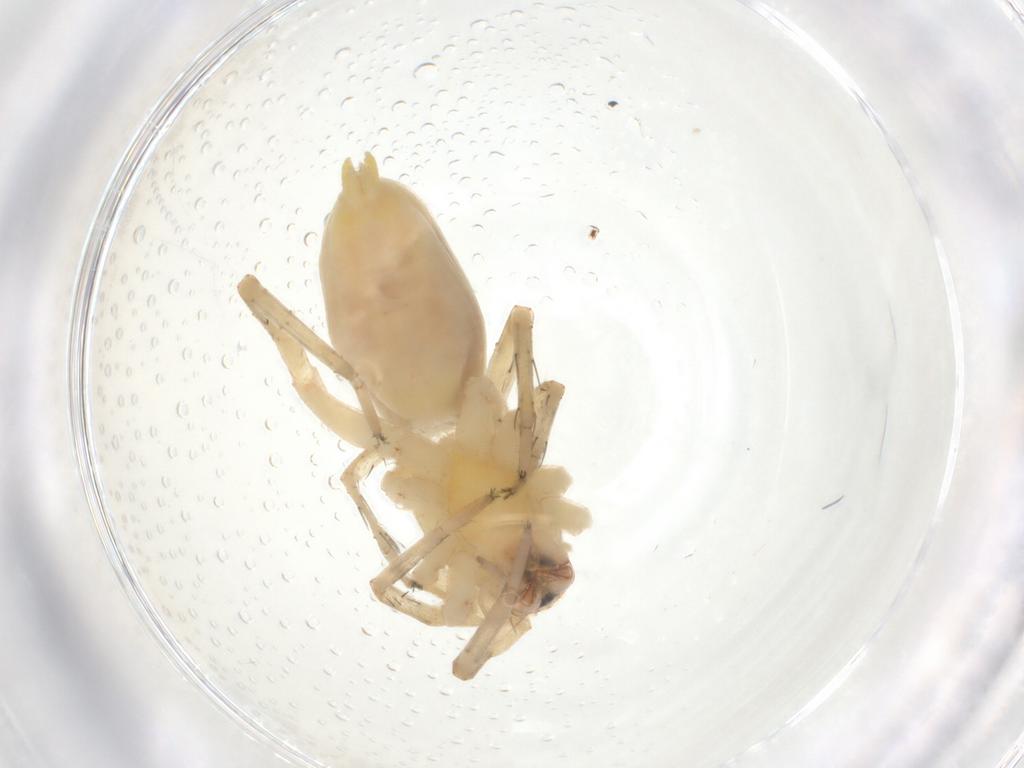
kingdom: Animalia
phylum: Arthropoda
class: Arachnida
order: Araneae
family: Anyphaenidae
